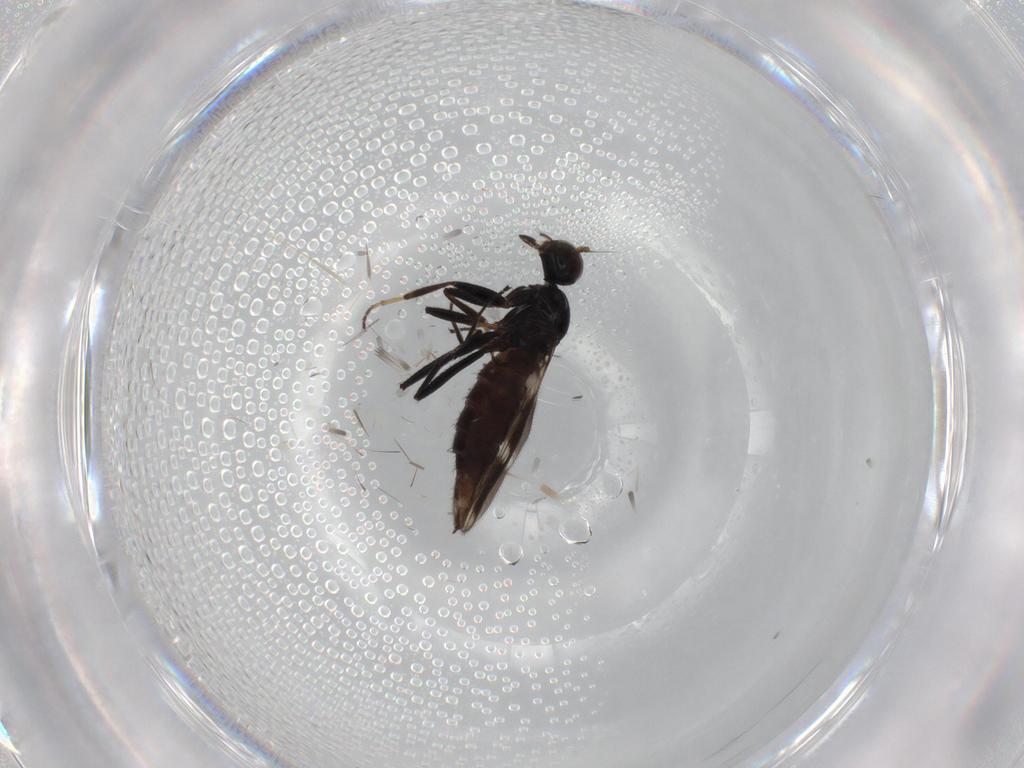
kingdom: Animalia
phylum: Arthropoda
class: Insecta
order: Diptera
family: Hybotidae
